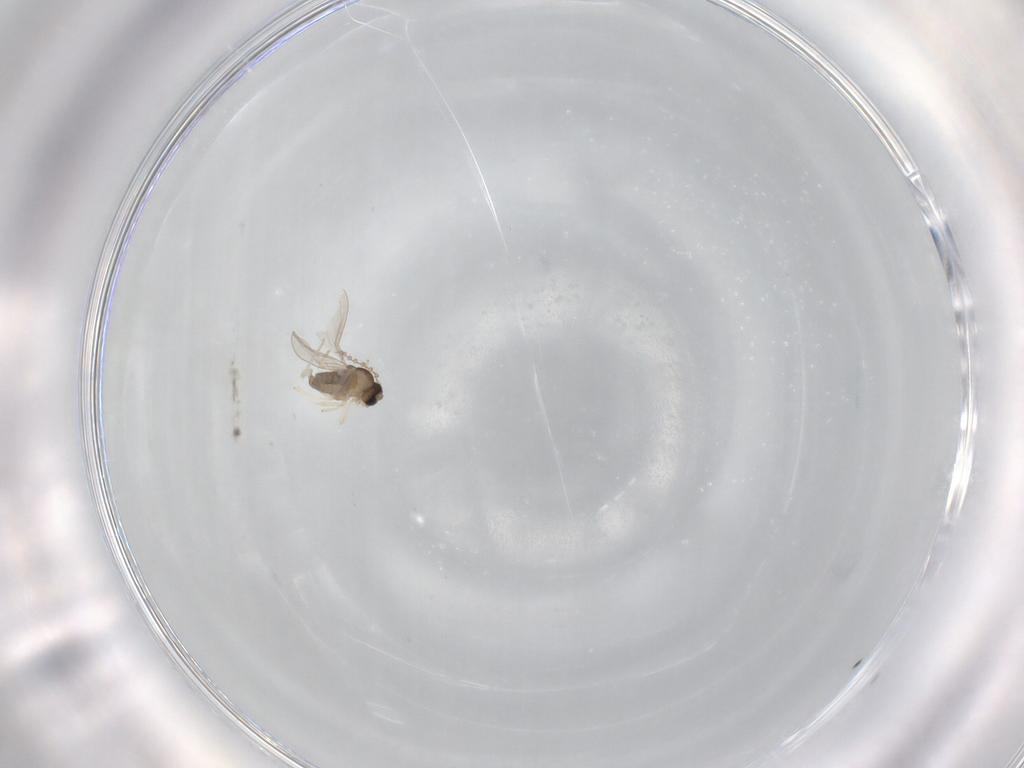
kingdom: Animalia
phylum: Arthropoda
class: Insecta
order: Diptera
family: Cecidomyiidae
